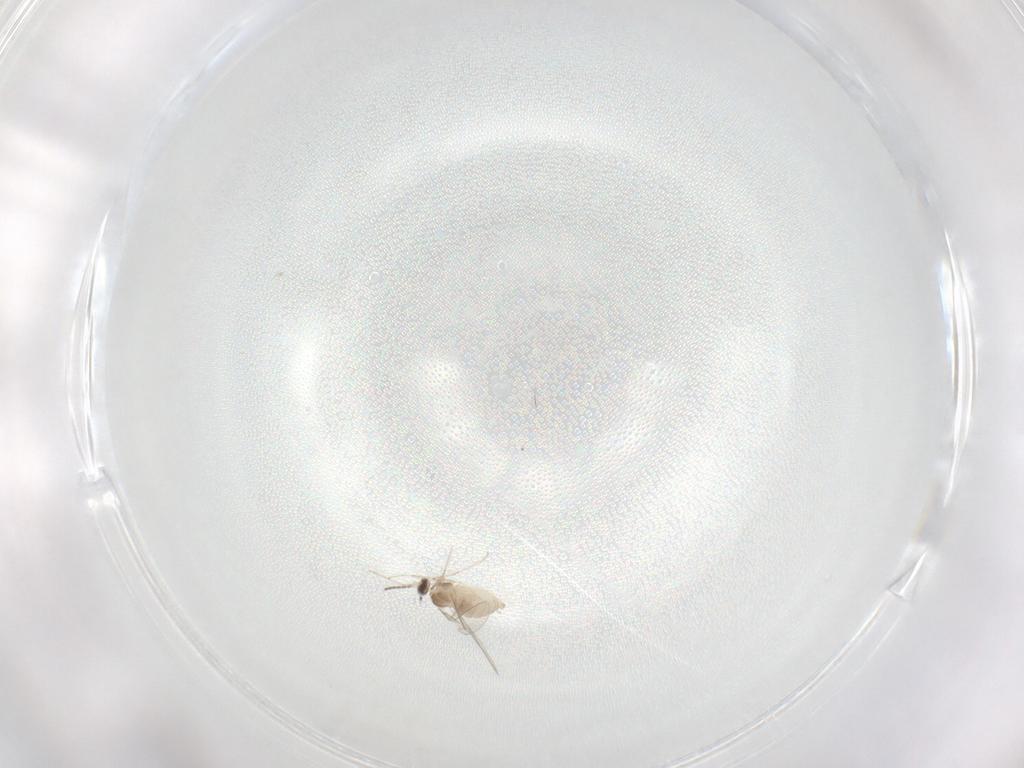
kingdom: Animalia
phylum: Arthropoda
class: Insecta
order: Diptera
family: Cecidomyiidae
